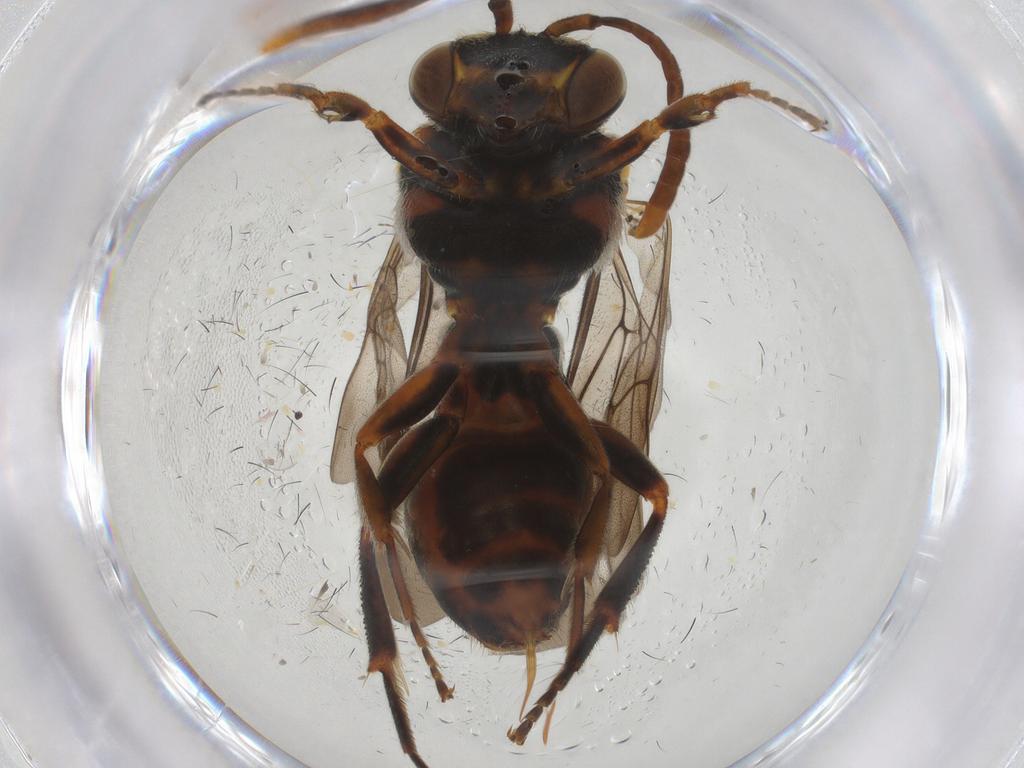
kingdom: Animalia
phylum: Arthropoda
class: Insecta
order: Hymenoptera
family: Apidae
